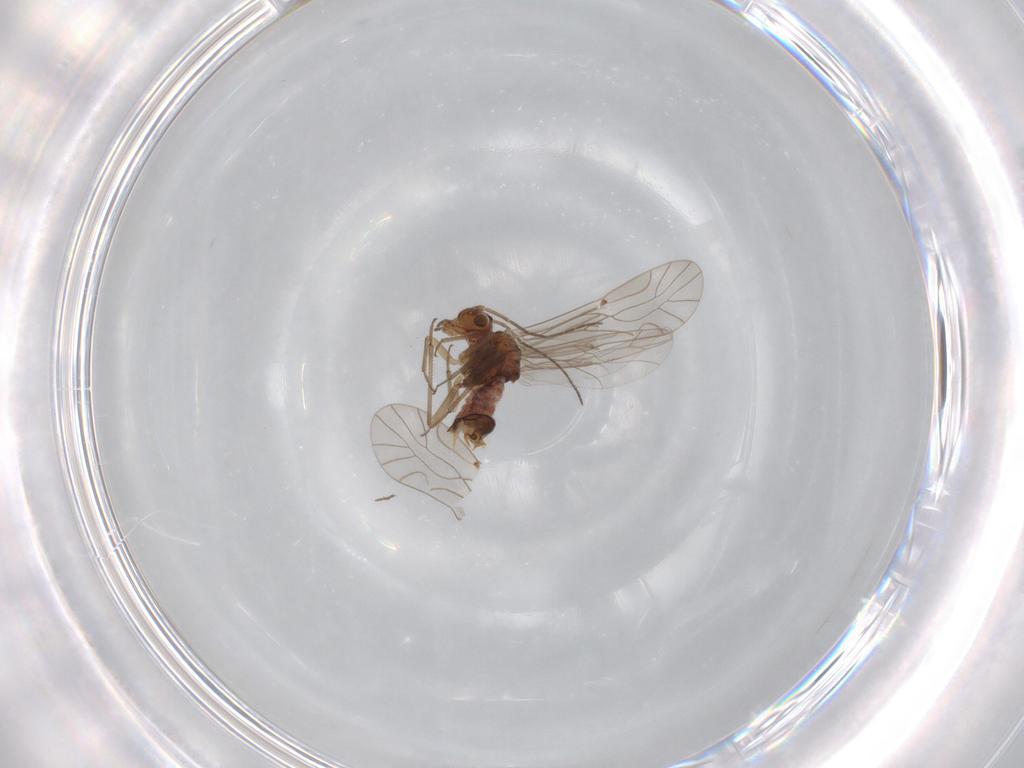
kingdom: Animalia
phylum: Arthropoda
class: Insecta
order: Psocodea
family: Lachesillidae
